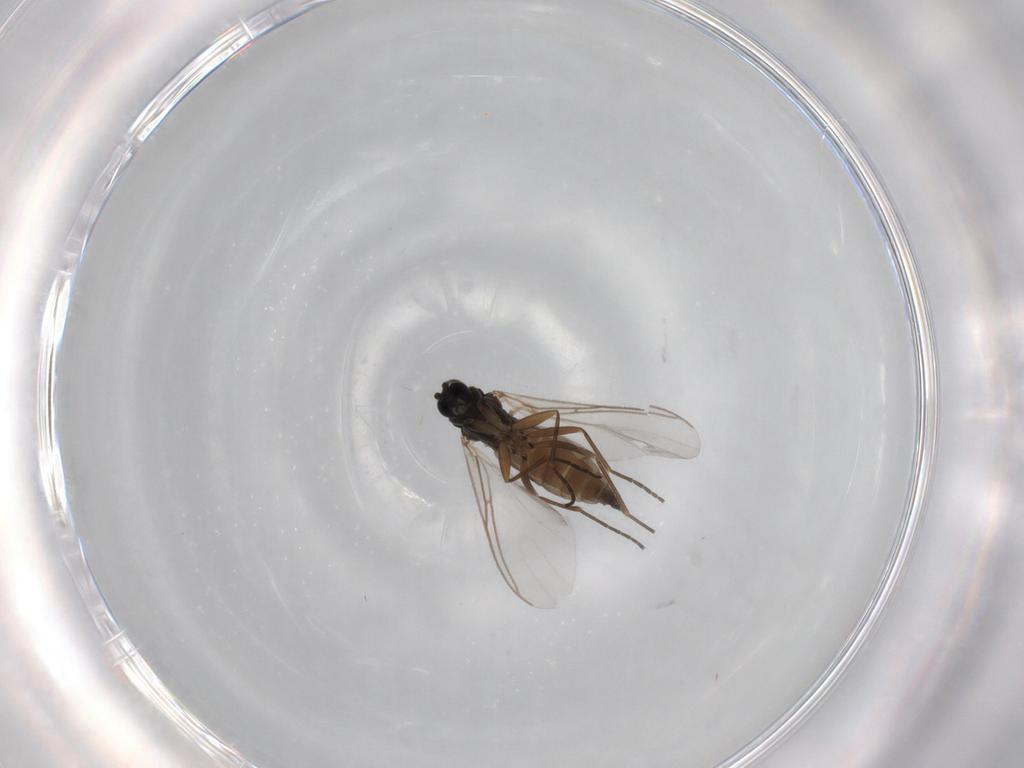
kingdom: Animalia
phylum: Arthropoda
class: Insecta
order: Diptera
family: Sciaridae
